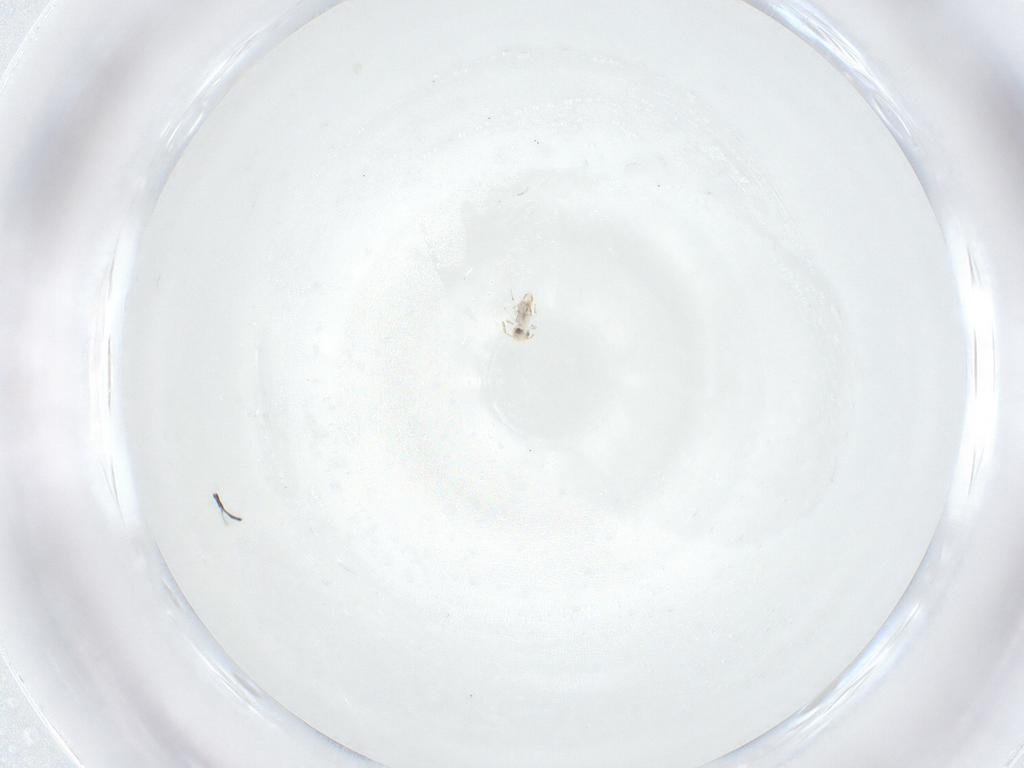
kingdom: Animalia
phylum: Arthropoda
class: Collembola
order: Symphypleona
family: Katiannidae
